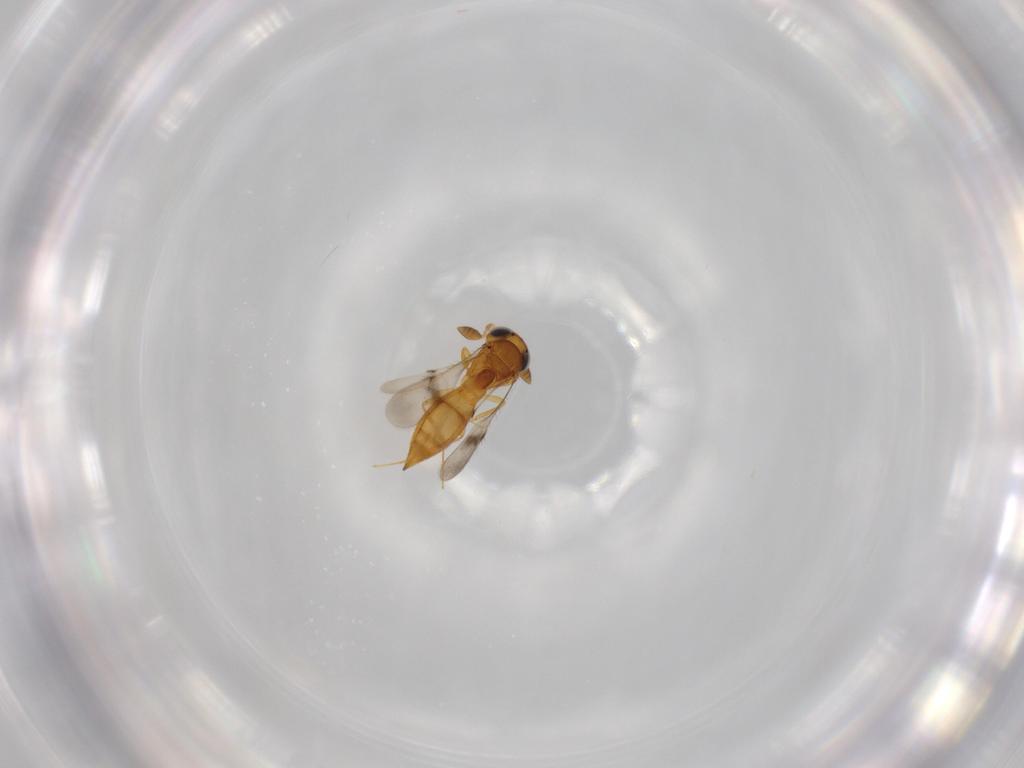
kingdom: Animalia
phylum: Arthropoda
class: Insecta
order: Hymenoptera
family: Scelionidae
